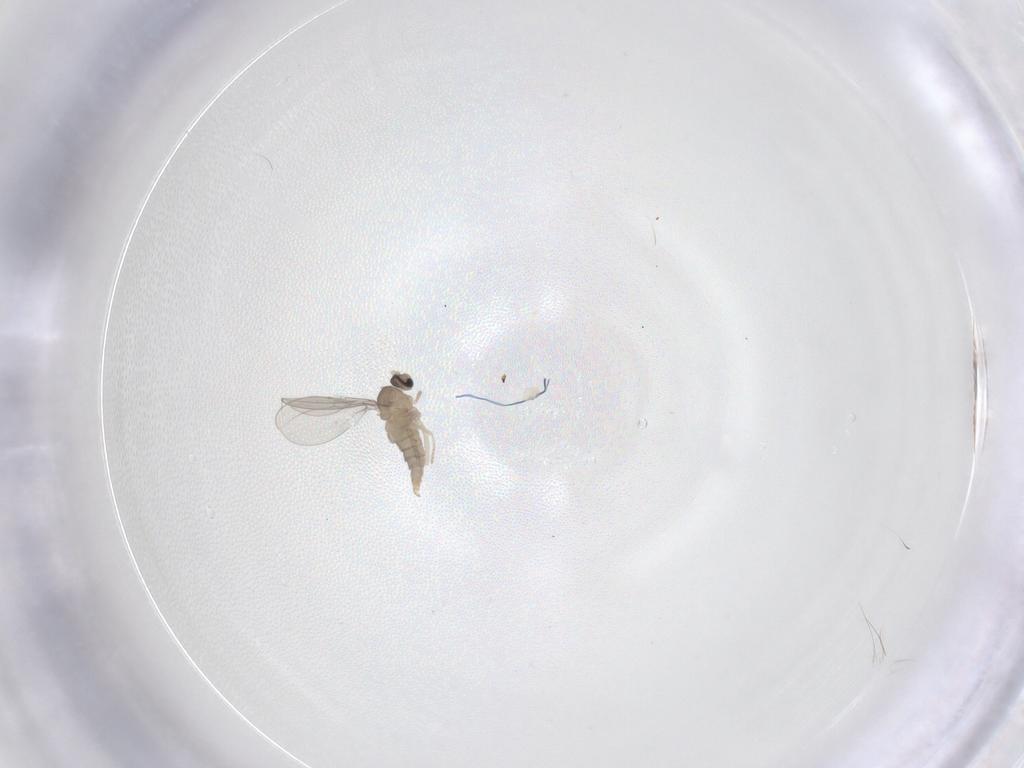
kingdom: Animalia
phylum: Arthropoda
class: Insecta
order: Diptera
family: Cecidomyiidae
